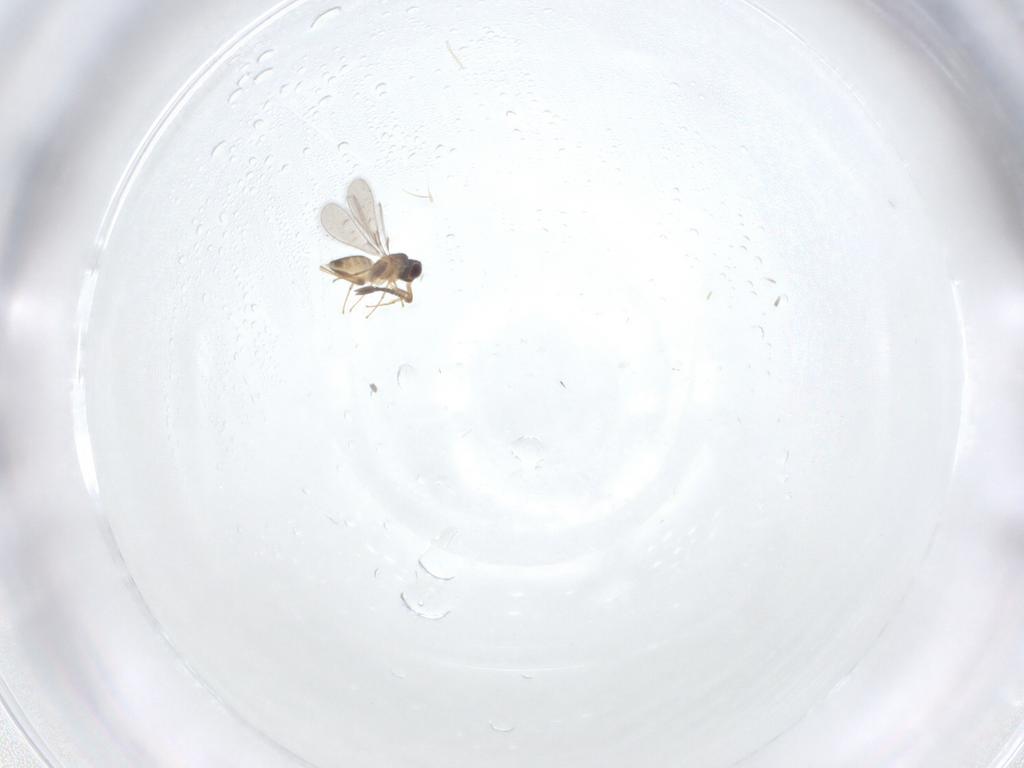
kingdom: Animalia
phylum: Arthropoda
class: Insecta
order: Hymenoptera
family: Mymaridae
